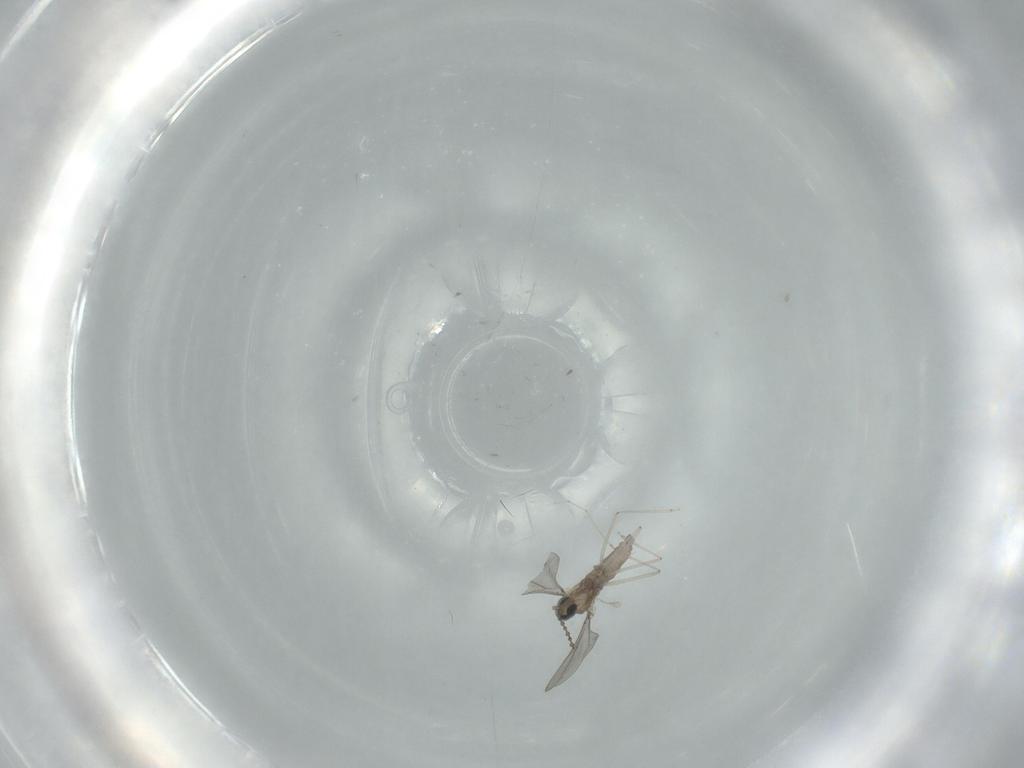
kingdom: Animalia
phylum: Arthropoda
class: Insecta
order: Diptera
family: Cecidomyiidae
